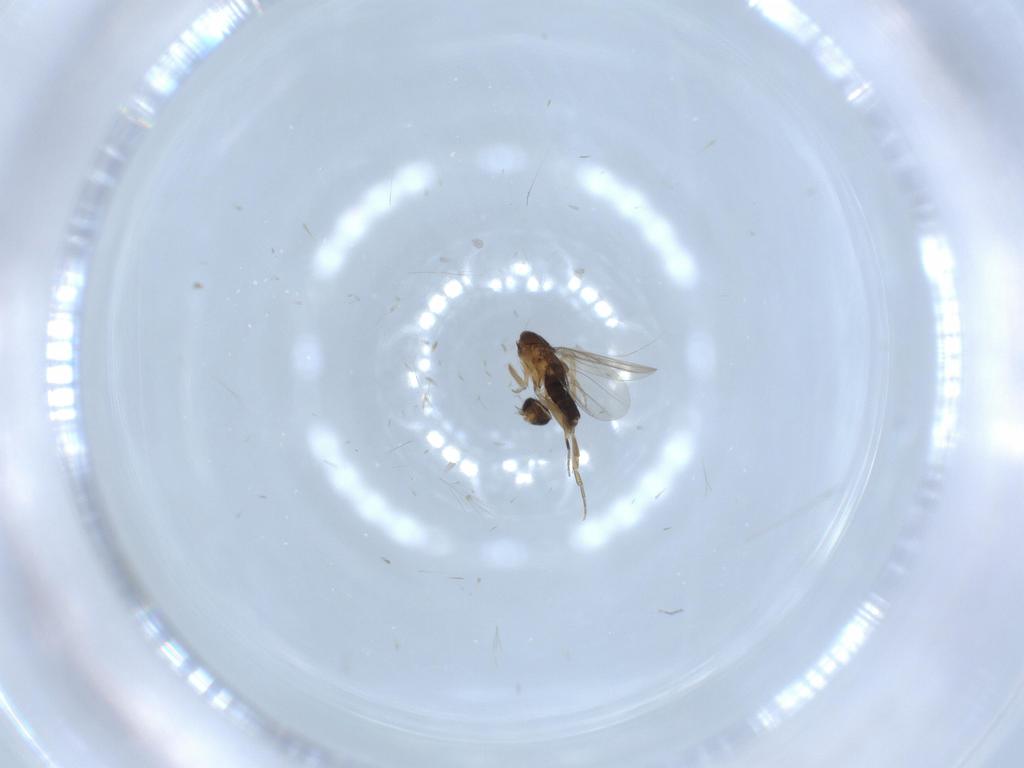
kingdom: Animalia
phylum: Arthropoda
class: Insecta
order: Diptera
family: Phoridae
